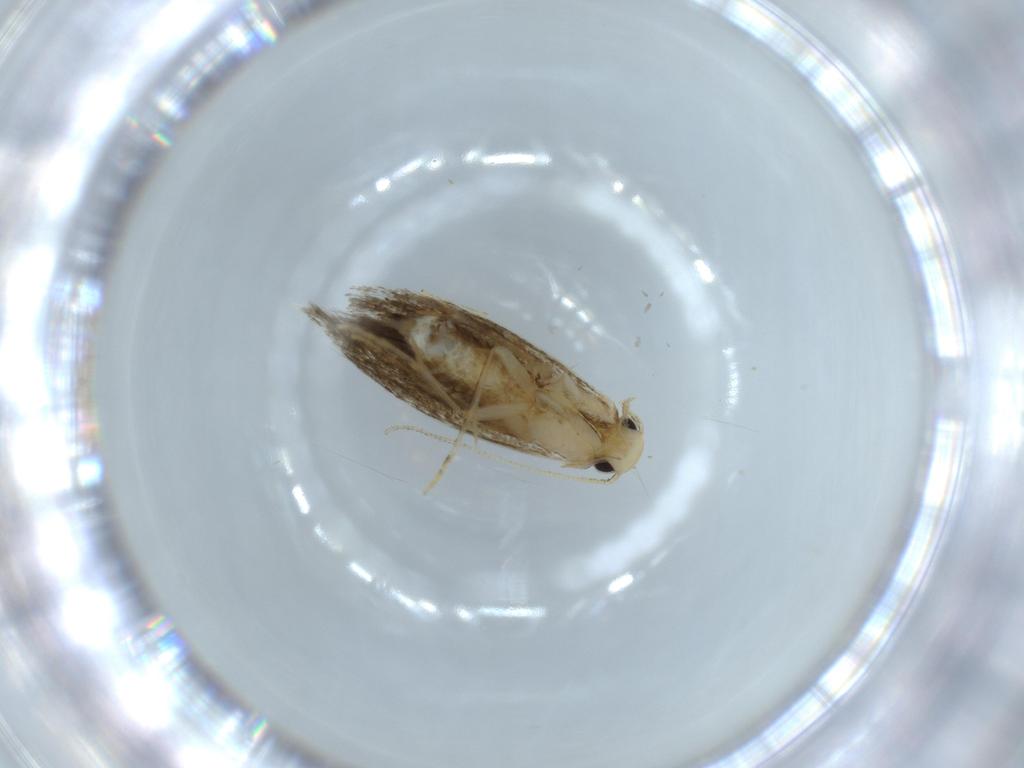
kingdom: Animalia
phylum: Arthropoda
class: Insecta
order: Lepidoptera
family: Tineidae
